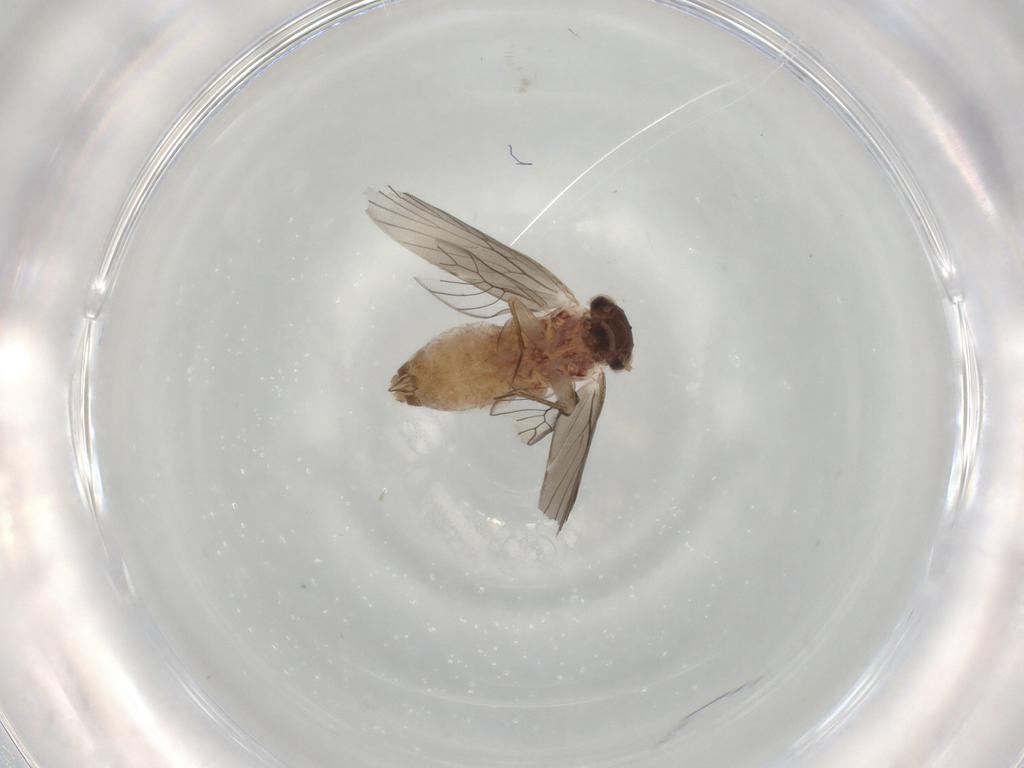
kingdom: Animalia
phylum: Arthropoda
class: Insecta
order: Psocodea
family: Lepidopsocidae
